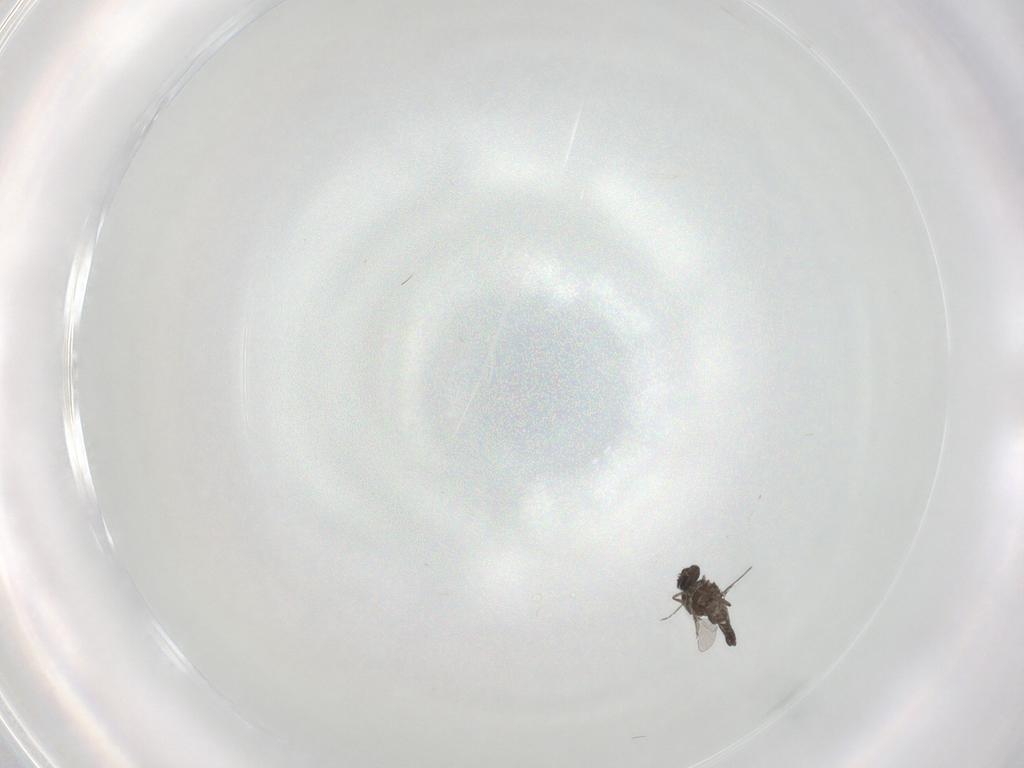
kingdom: Animalia
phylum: Arthropoda
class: Insecta
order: Diptera
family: Ceratopogonidae
